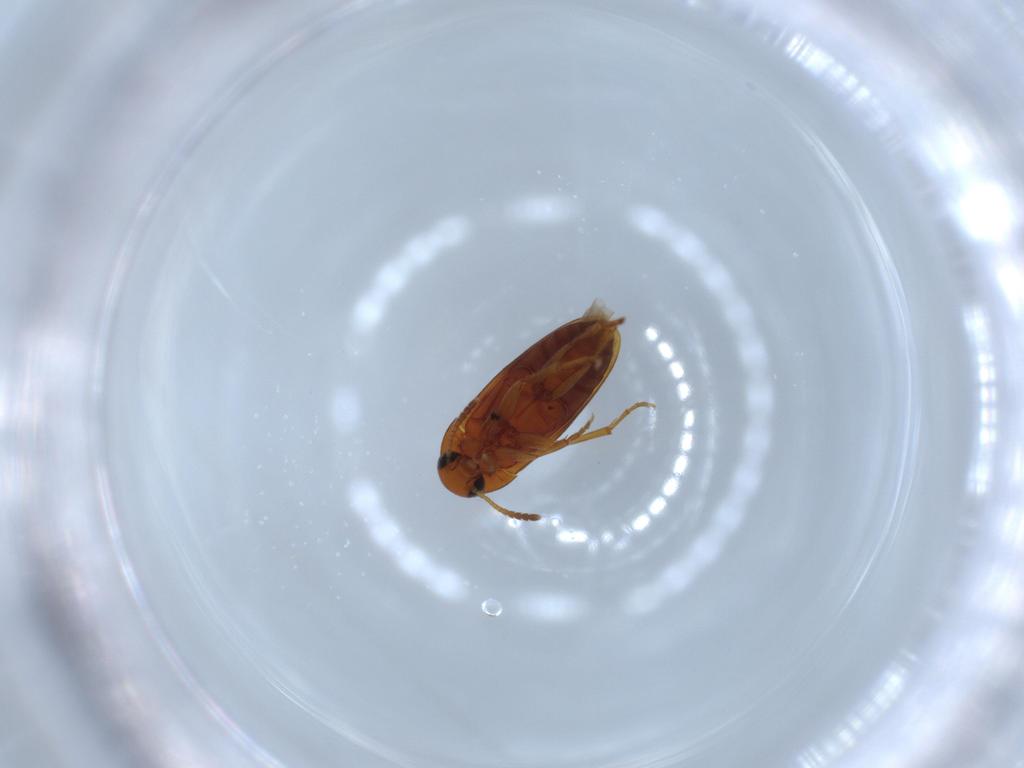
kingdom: Animalia
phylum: Arthropoda
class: Insecta
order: Coleoptera
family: Scraptiidae
